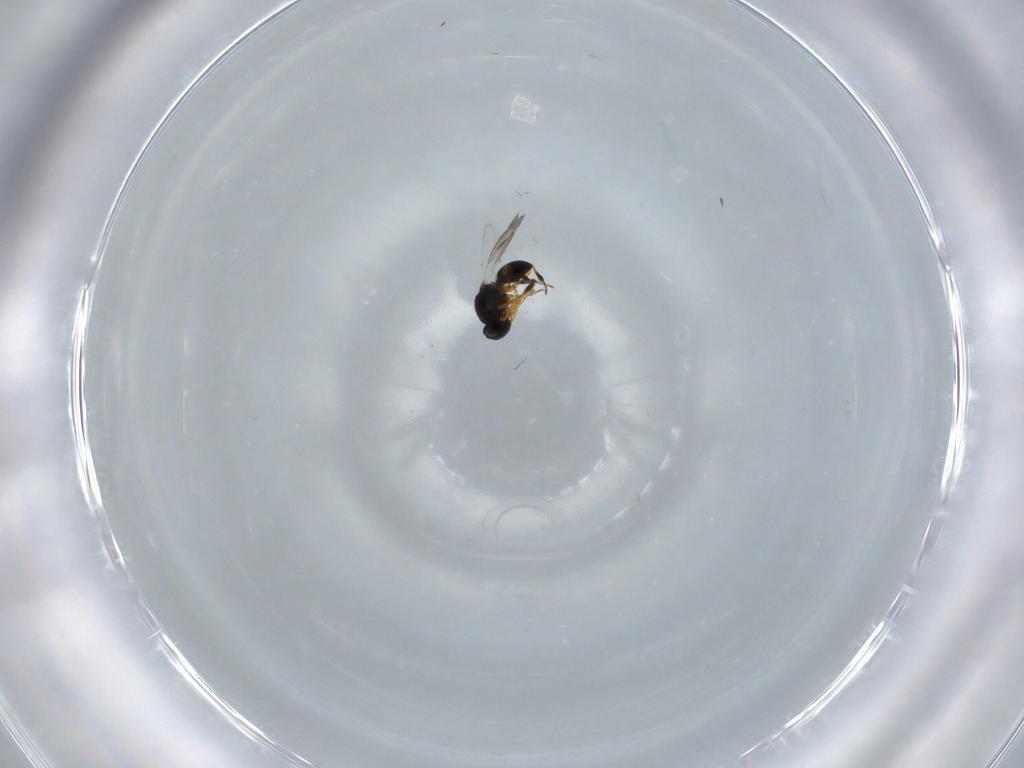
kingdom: Animalia
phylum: Arthropoda
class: Insecta
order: Hymenoptera
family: Platygastridae
